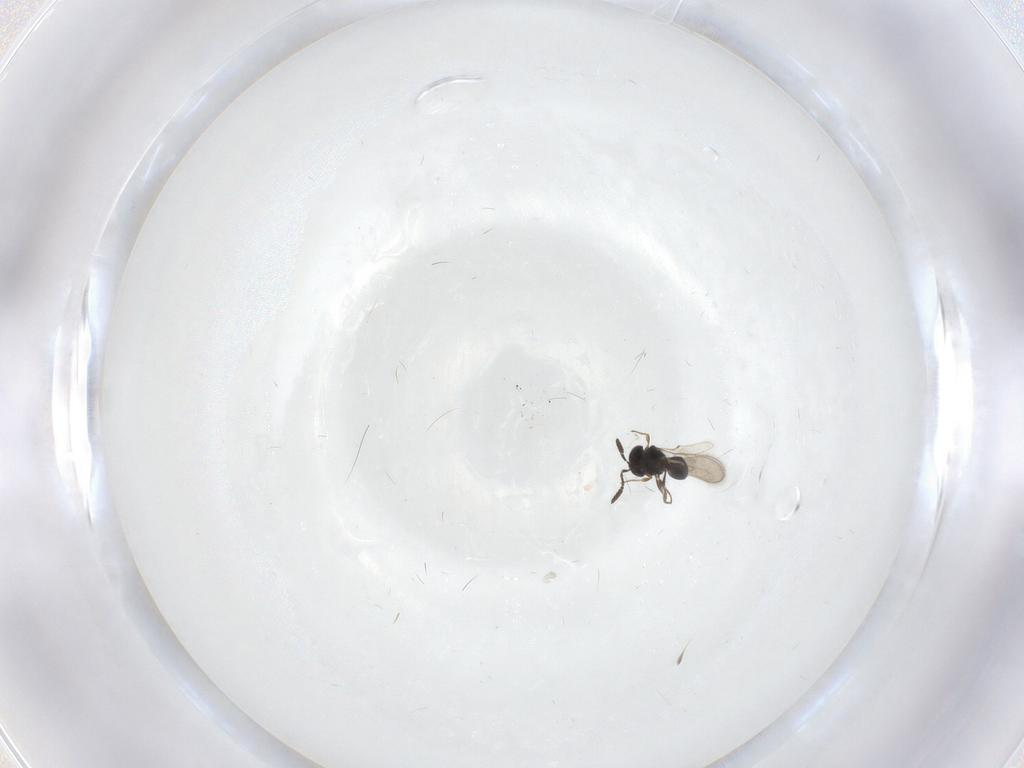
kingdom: Animalia
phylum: Arthropoda
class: Insecta
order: Hymenoptera
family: Scelionidae
